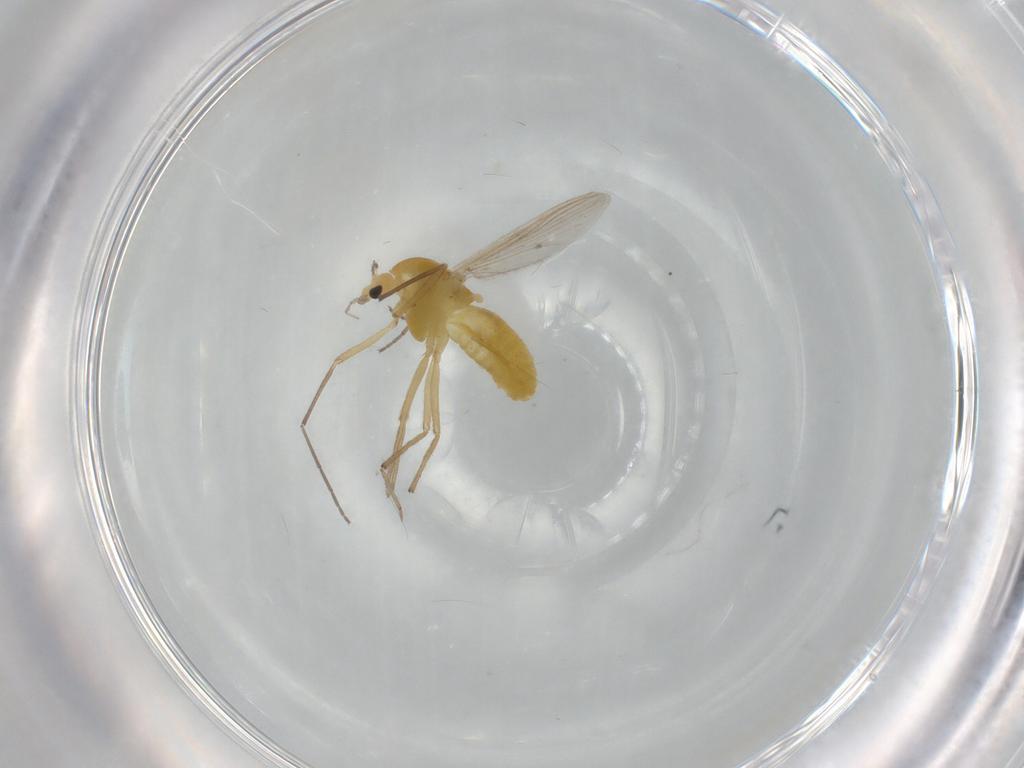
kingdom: Animalia
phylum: Arthropoda
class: Insecta
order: Diptera
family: Chironomidae
